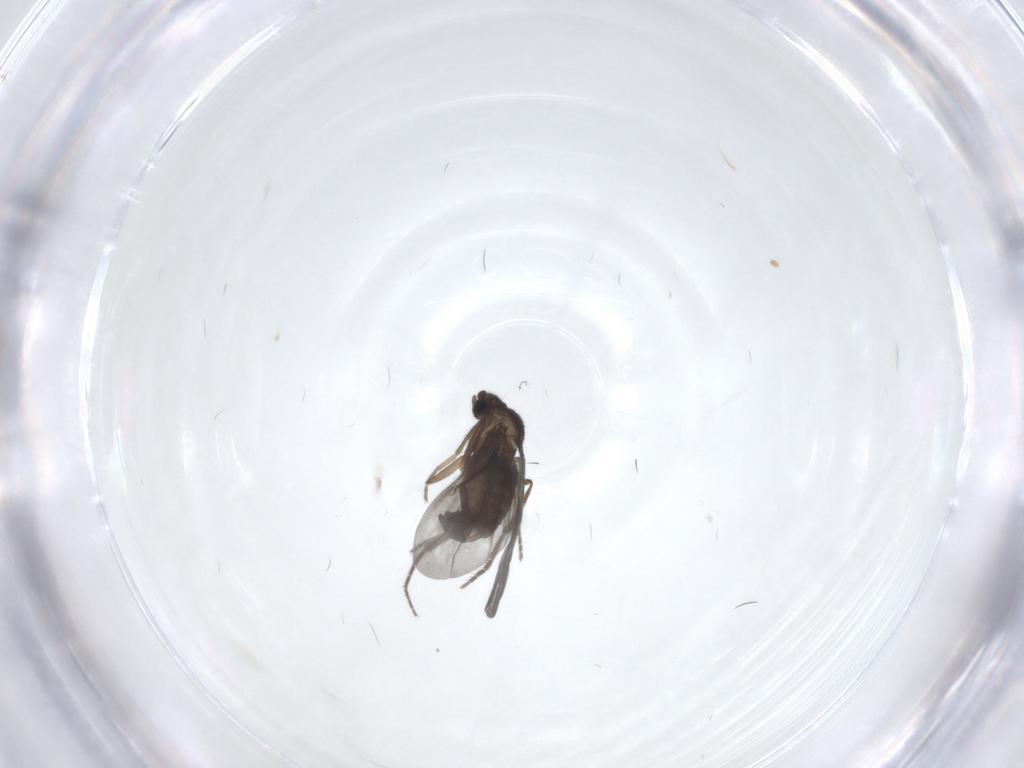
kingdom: Animalia
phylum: Arthropoda
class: Insecta
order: Diptera
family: Phoridae
